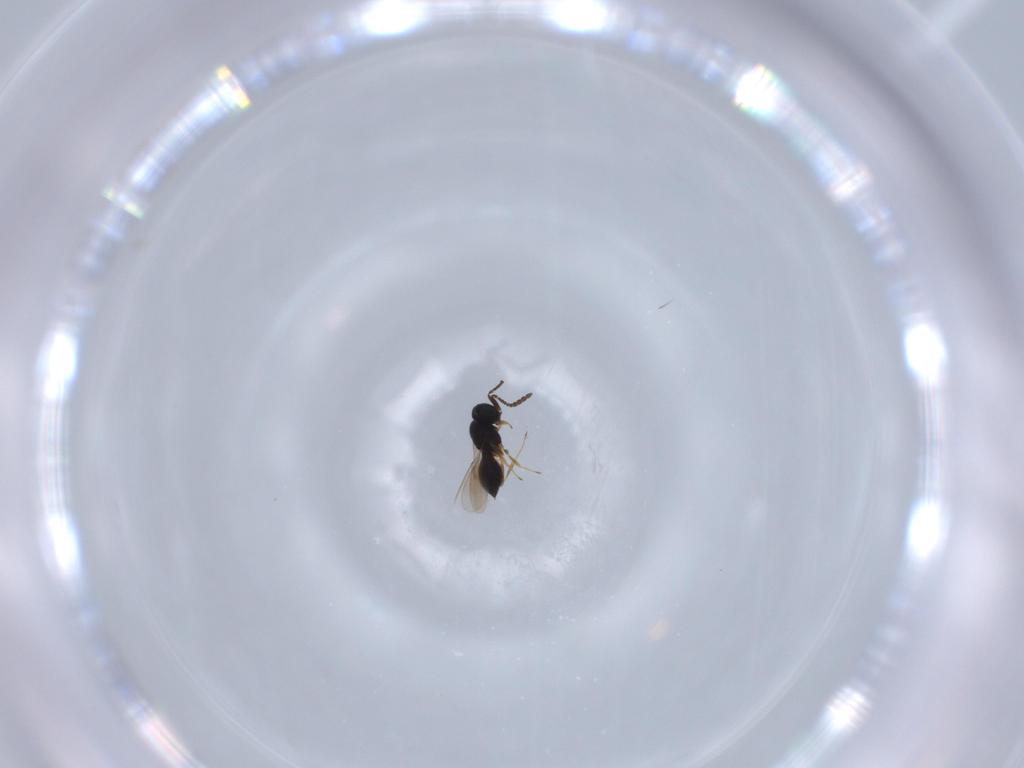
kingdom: Animalia
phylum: Arthropoda
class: Insecta
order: Hymenoptera
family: Scelionidae
